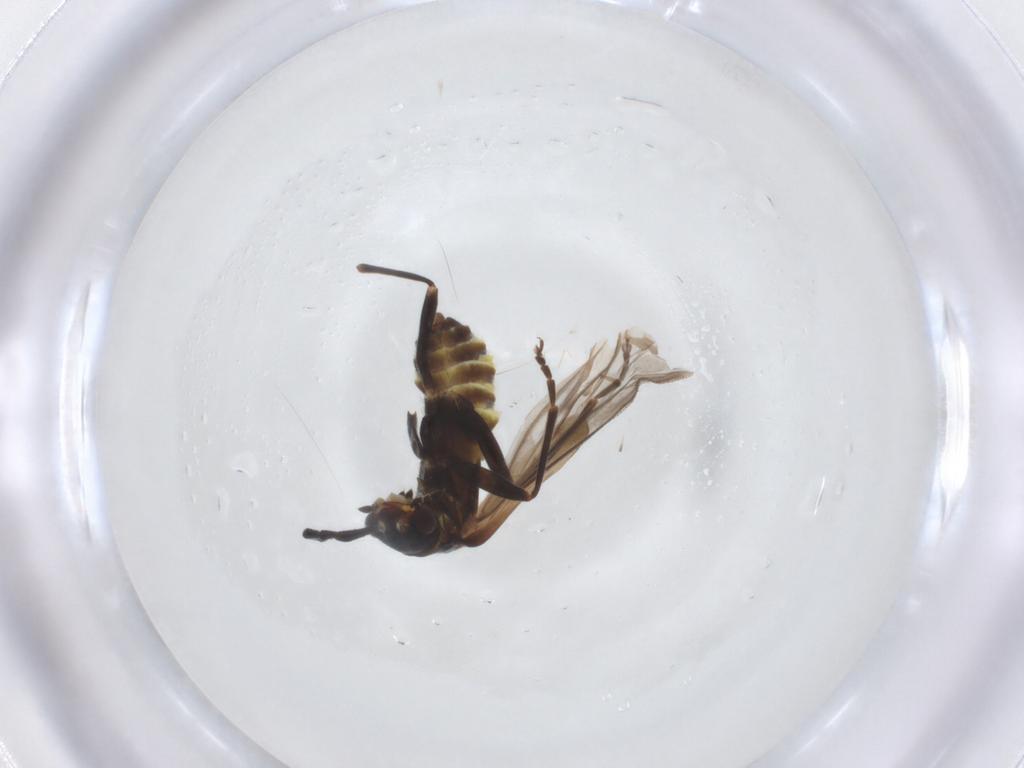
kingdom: Animalia
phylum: Arthropoda
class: Insecta
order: Coleoptera
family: Cantharidae
